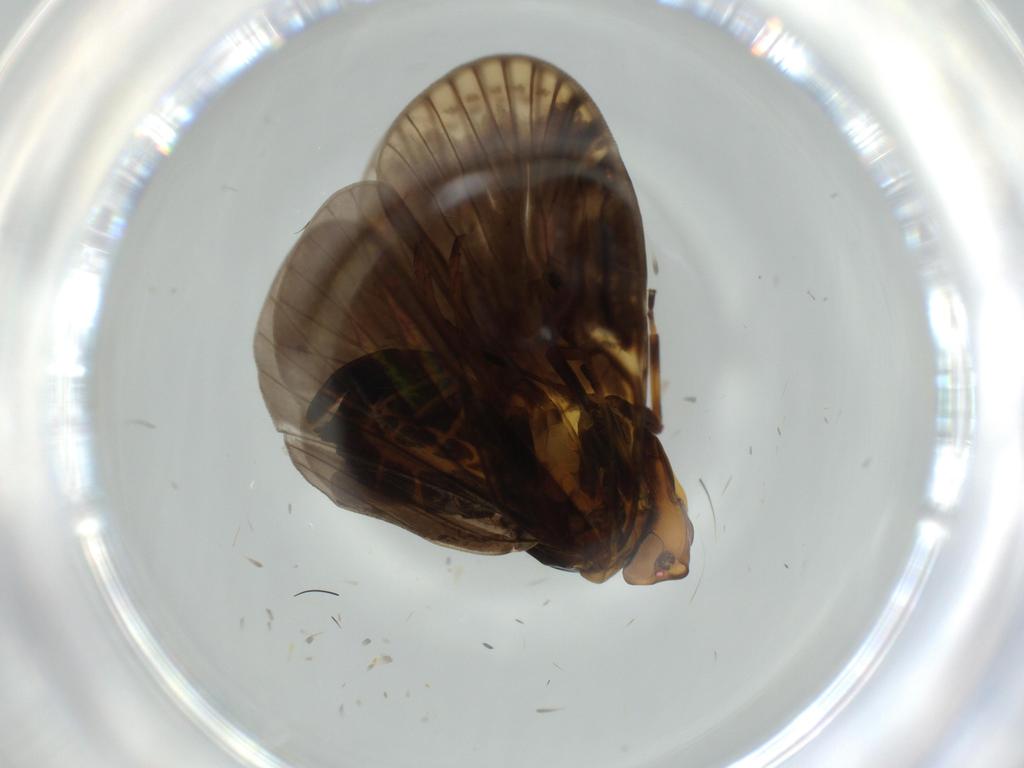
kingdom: Animalia
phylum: Arthropoda
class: Insecta
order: Hemiptera
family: Cixiidae
